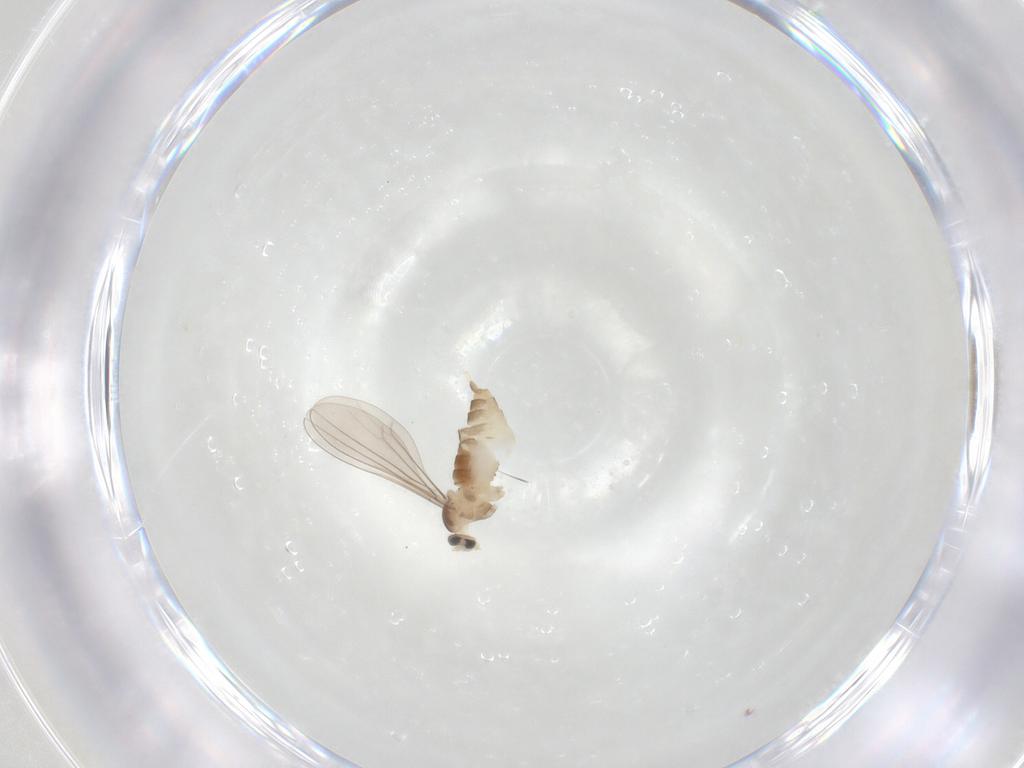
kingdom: Animalia
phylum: Arthropoda
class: Insecta
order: Diptera
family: Cecidomyiidae
